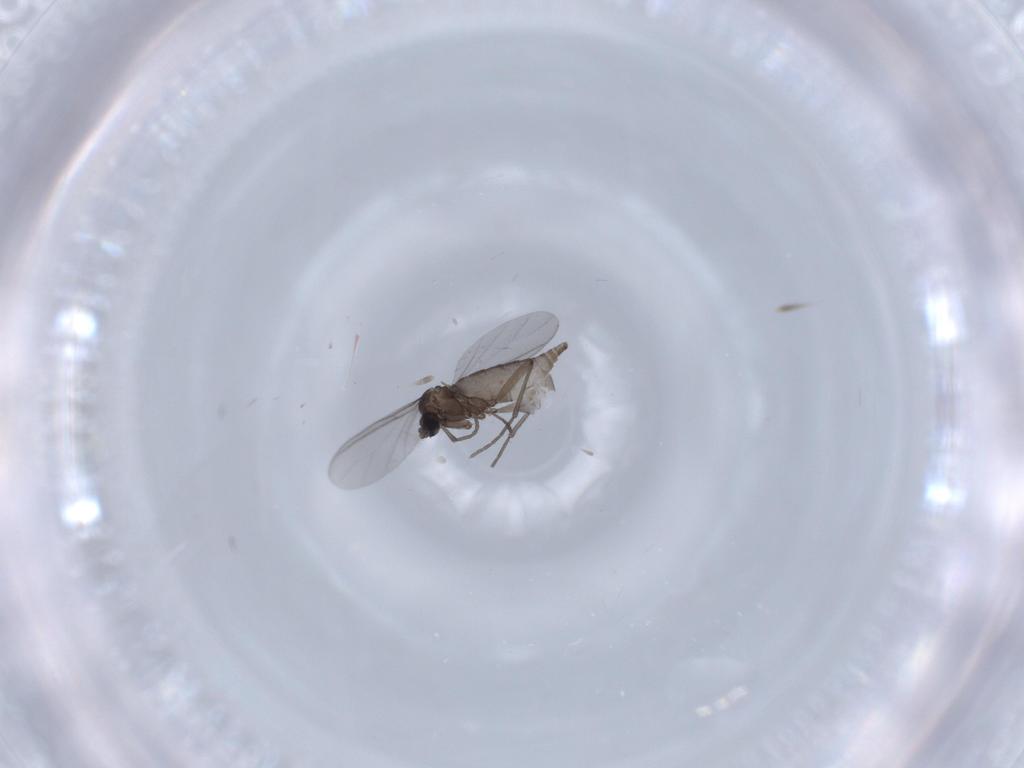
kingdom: Animalia
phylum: Arthropoda
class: Insecta
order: Diptera
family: Sciaridae
